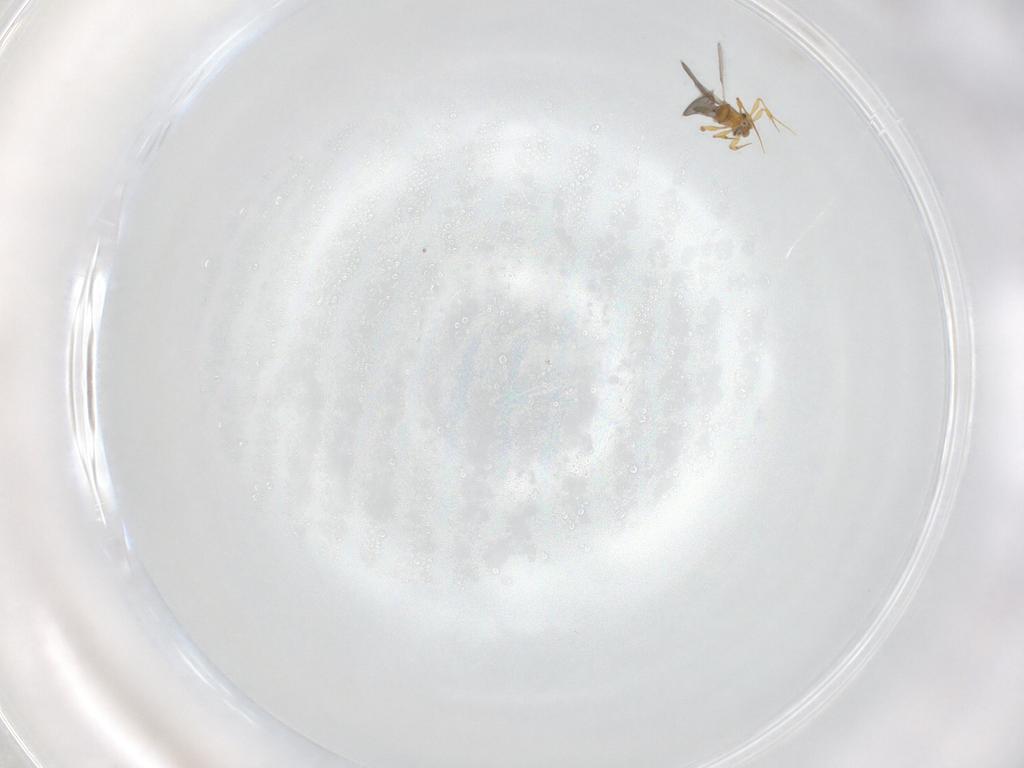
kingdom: Animalia
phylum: Arthropoda
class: Insecta
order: Hymenoptera
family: Platygastridae
